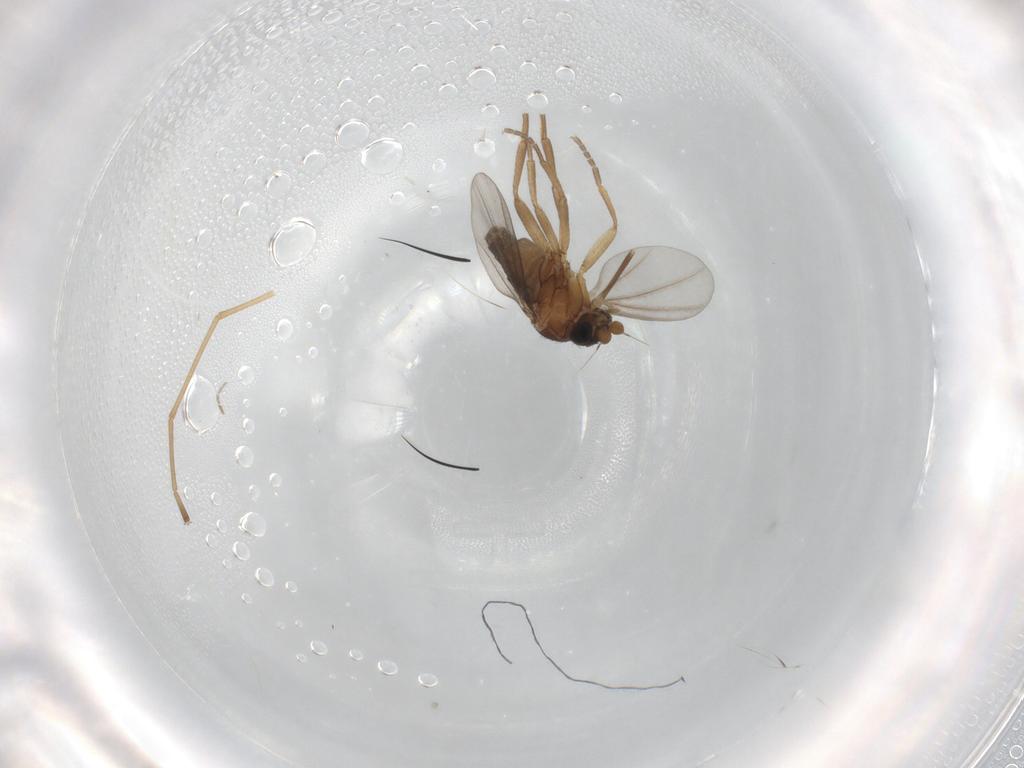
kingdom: Animalia
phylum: Arthropoda
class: Insecta
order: Diptera
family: Phoridae
